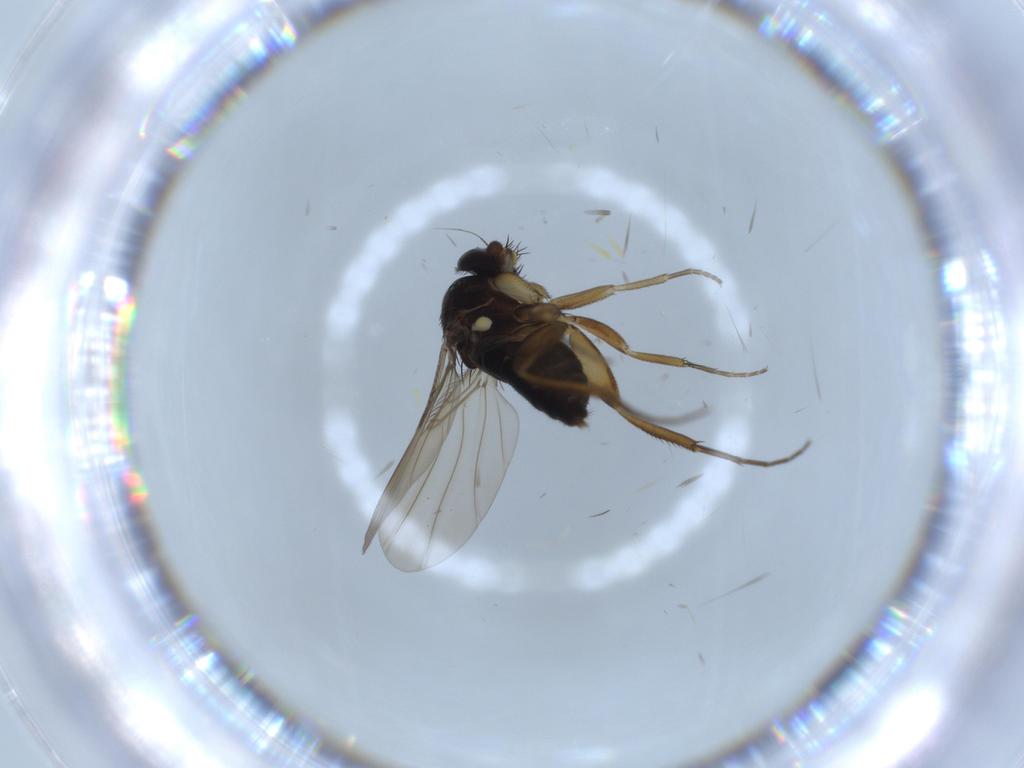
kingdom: Animalia
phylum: Arthropoda
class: Insecta
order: Diptera
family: Phoridae
